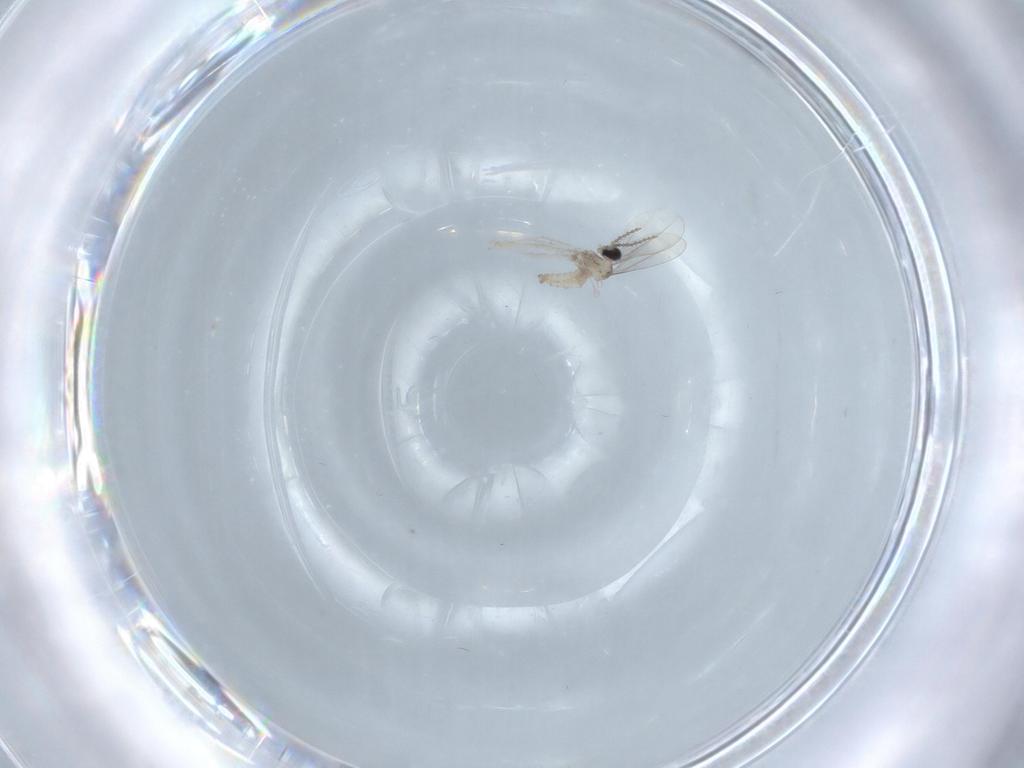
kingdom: Animalia
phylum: Arthropoda
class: Insecta
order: Diptera
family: Cecidomyiidae
